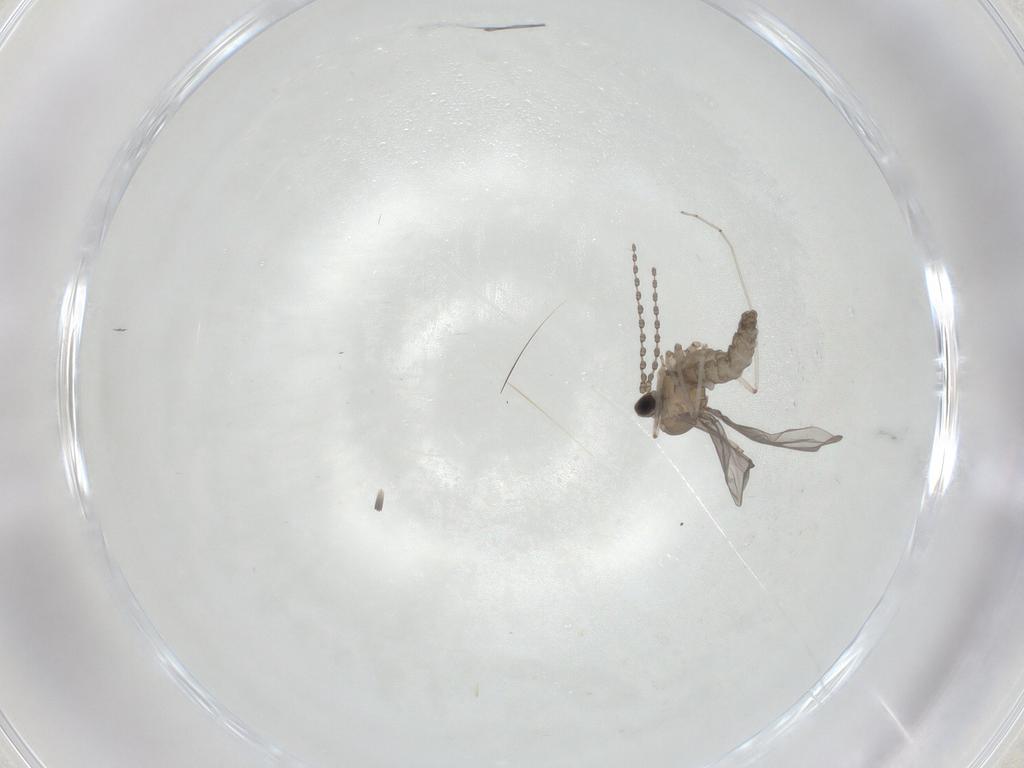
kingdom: Animalia
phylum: Arthropoda
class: Insecta
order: Diptera
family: Cecidomyiidae
